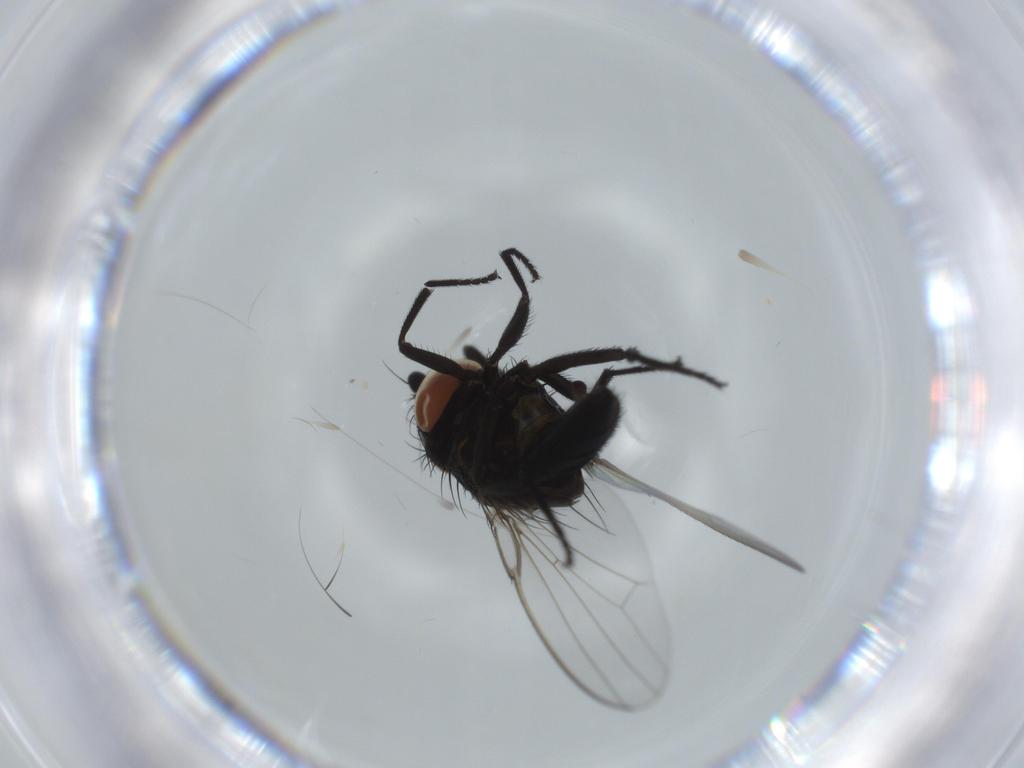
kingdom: Animalia
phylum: Arthropoda
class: Insecta
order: Diptera
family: Milichiidae
